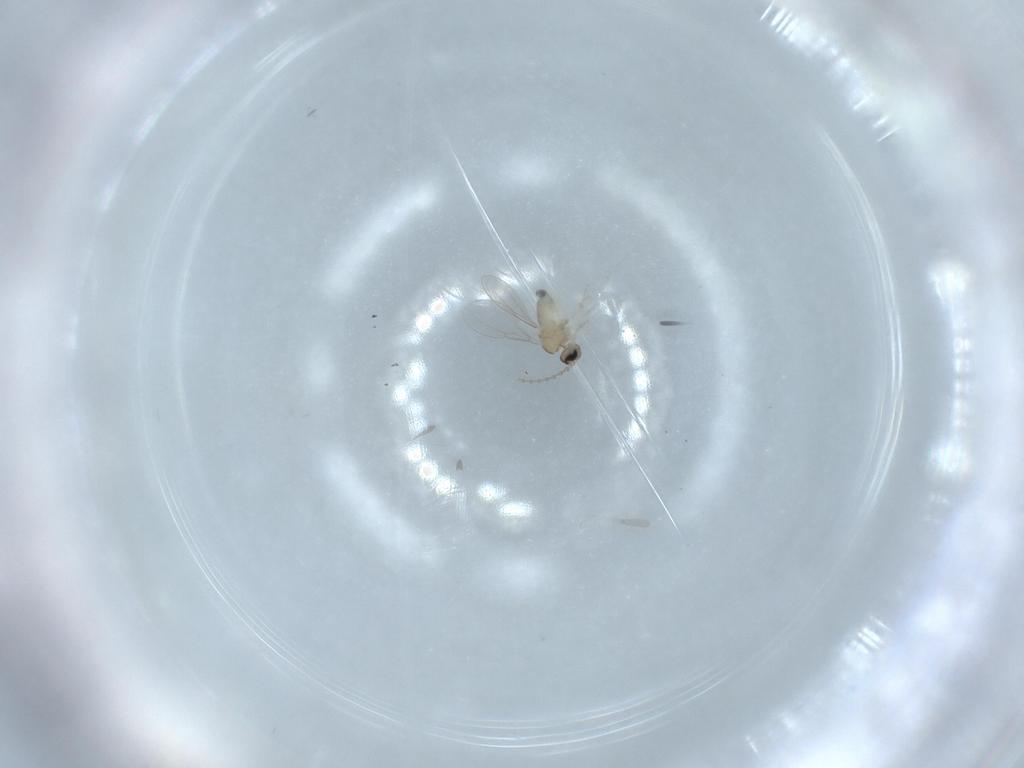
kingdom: Animalia
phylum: Arthropoda
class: Insecta
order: Diptera
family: Cecidomyiidae
